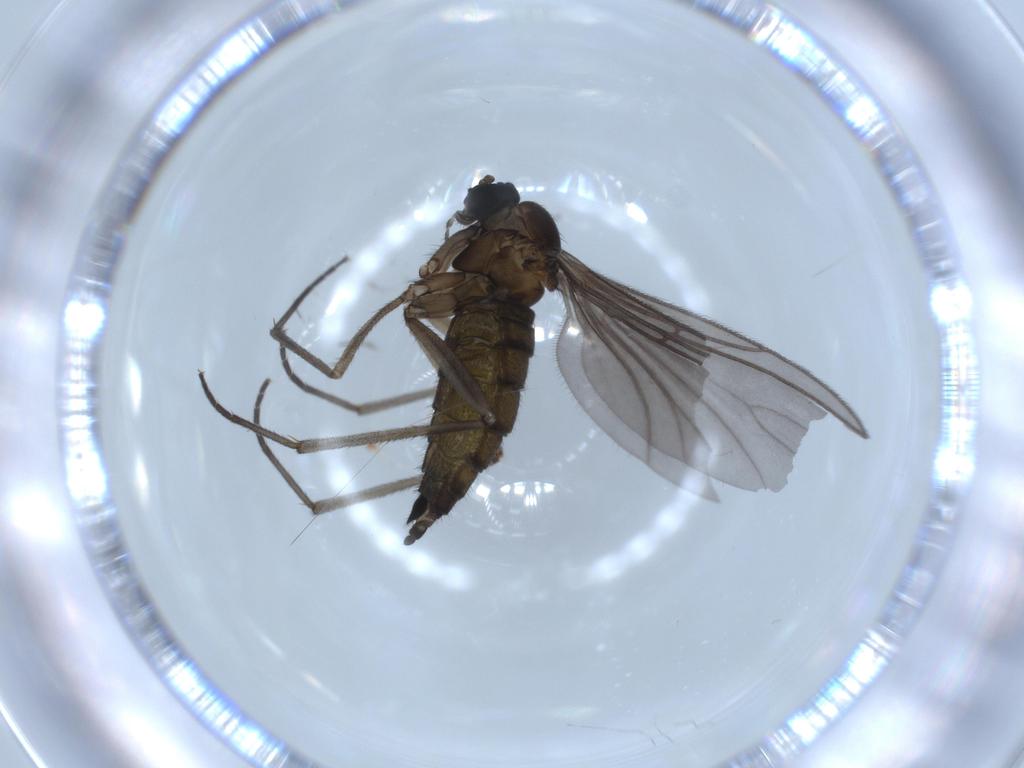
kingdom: Animalia
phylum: Arthropoda
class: Insecta
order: Diptera
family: Sciaridae
